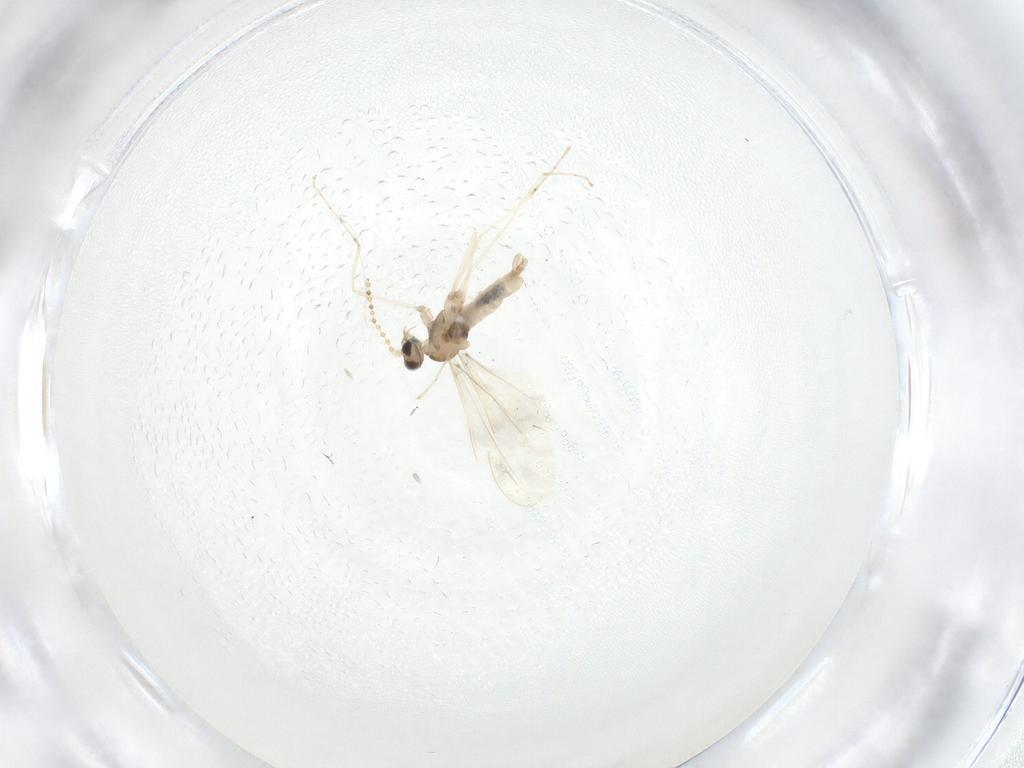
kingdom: Animalia
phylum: Arthropoda
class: Insecta
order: Diptera
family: Cecidomyiidae
